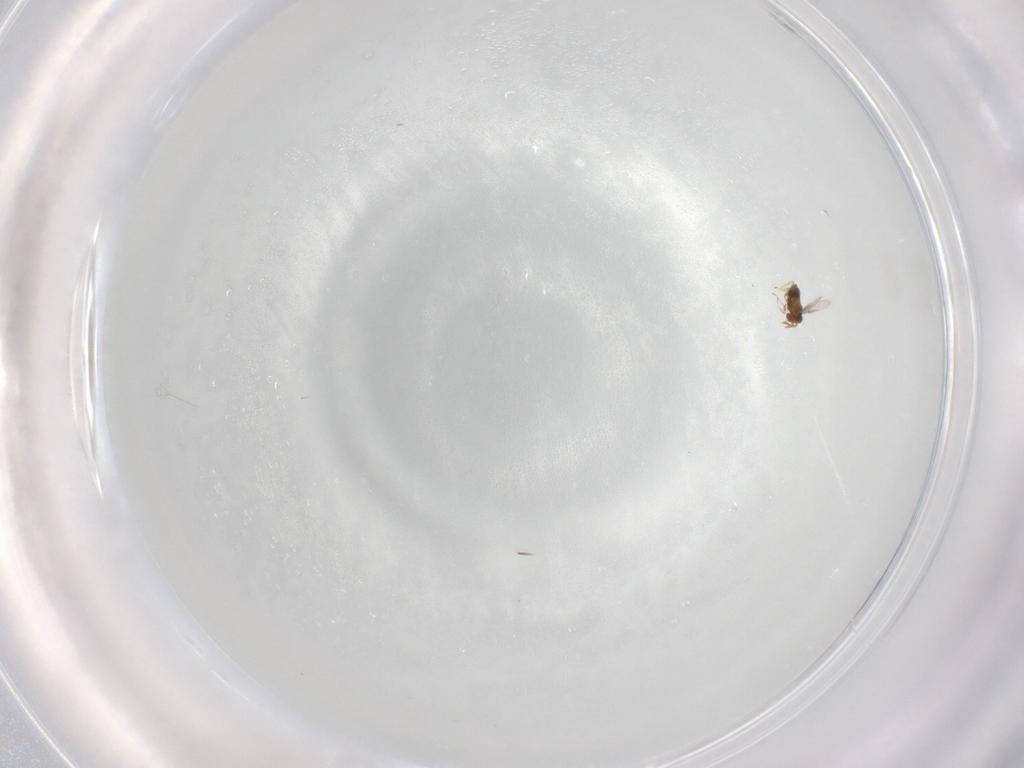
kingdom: Animalia
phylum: Arthropoda
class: Insecta
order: Hymenoptera
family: Trichogrammatidae
